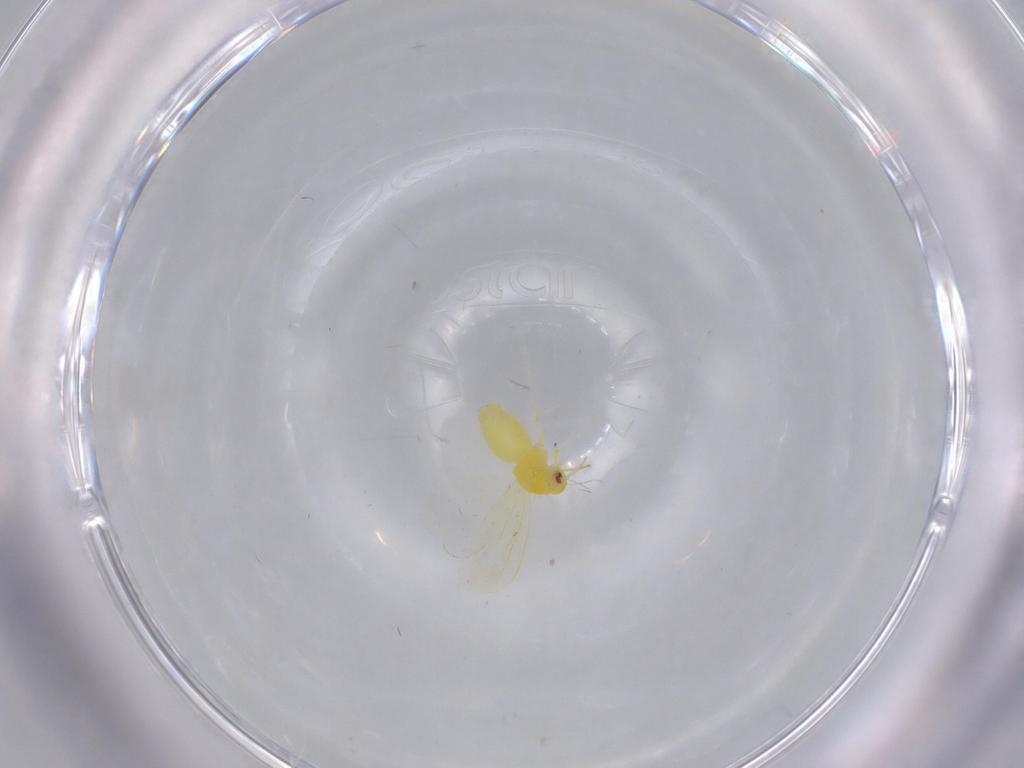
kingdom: Animalia
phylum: Arthropoda
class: Insecta
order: Hemiptera
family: Aleyrodidae
